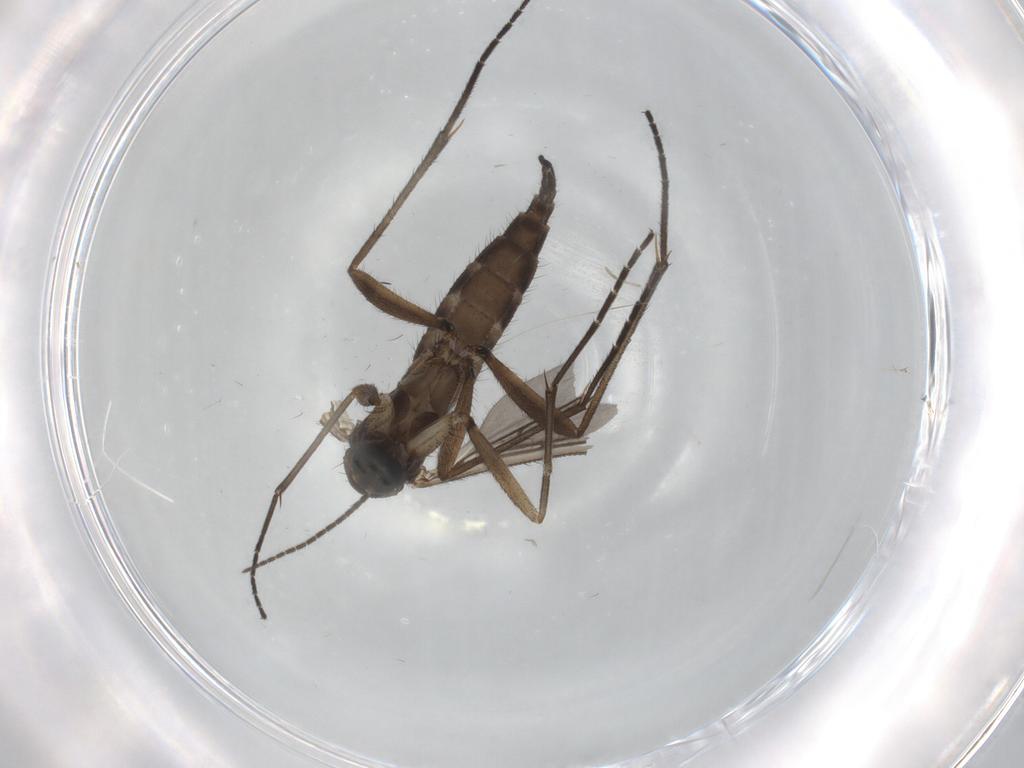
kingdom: Animalia
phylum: Arthropoda
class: Insecta
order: Diptera
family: Sciaridae
